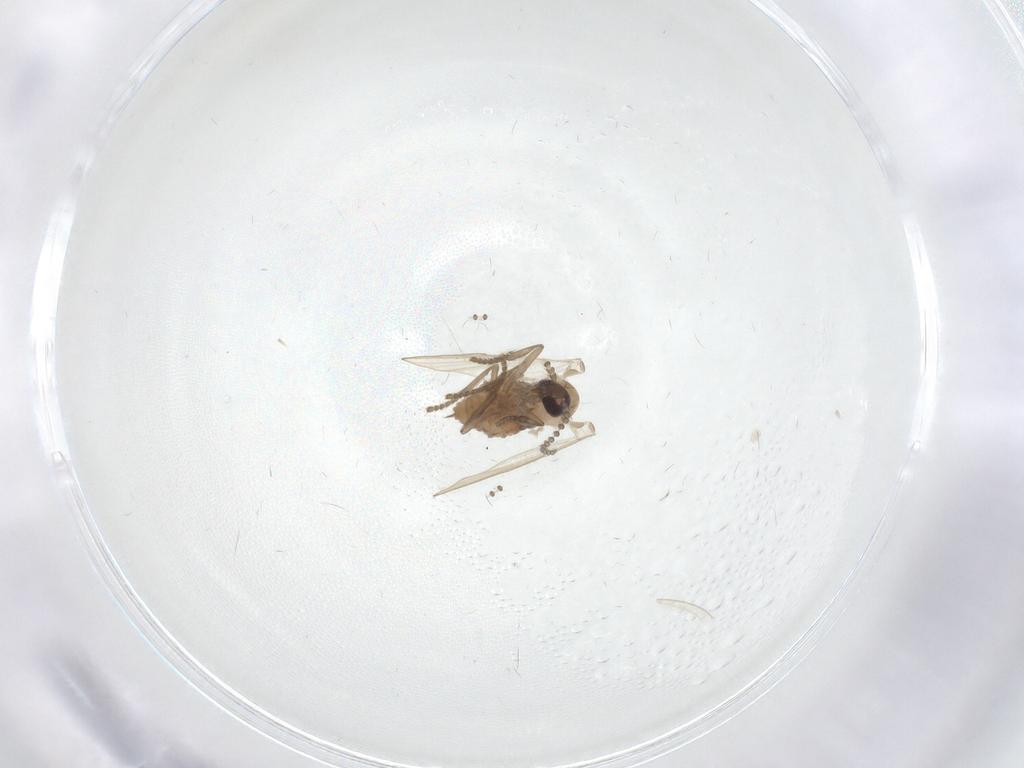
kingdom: Animalia
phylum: Arthropoda
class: Insecta
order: Diptera
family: Psychodidae
